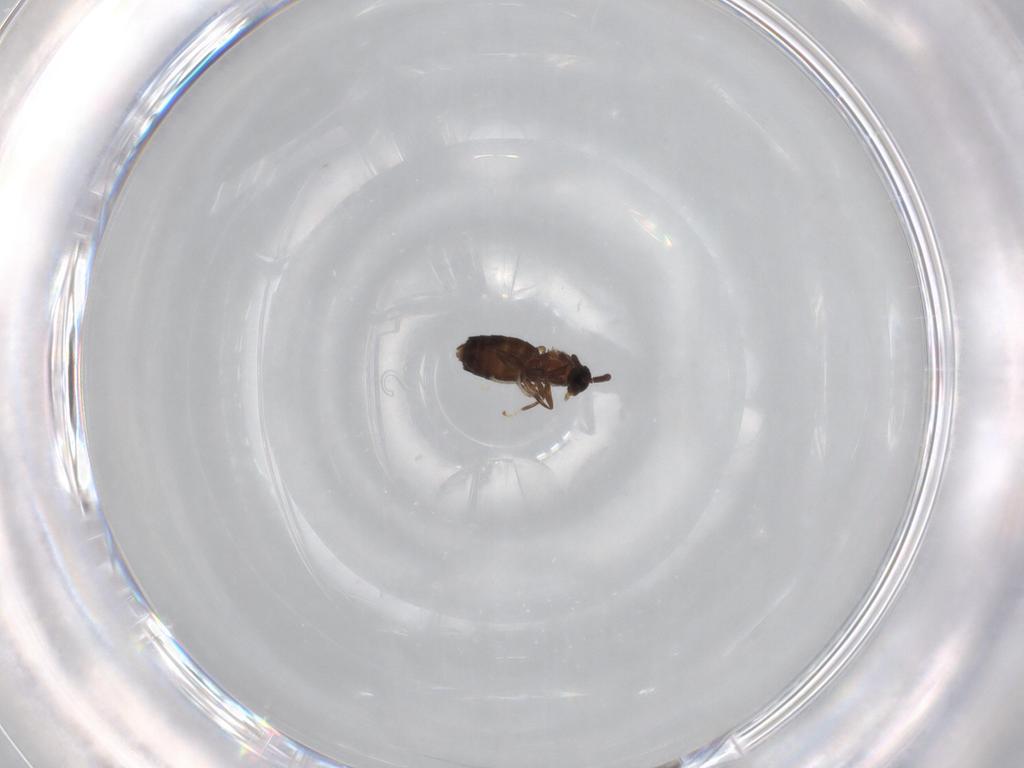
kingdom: Animalia
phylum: Arthropoda
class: Insecta
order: Diptera
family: Scatopsidae
